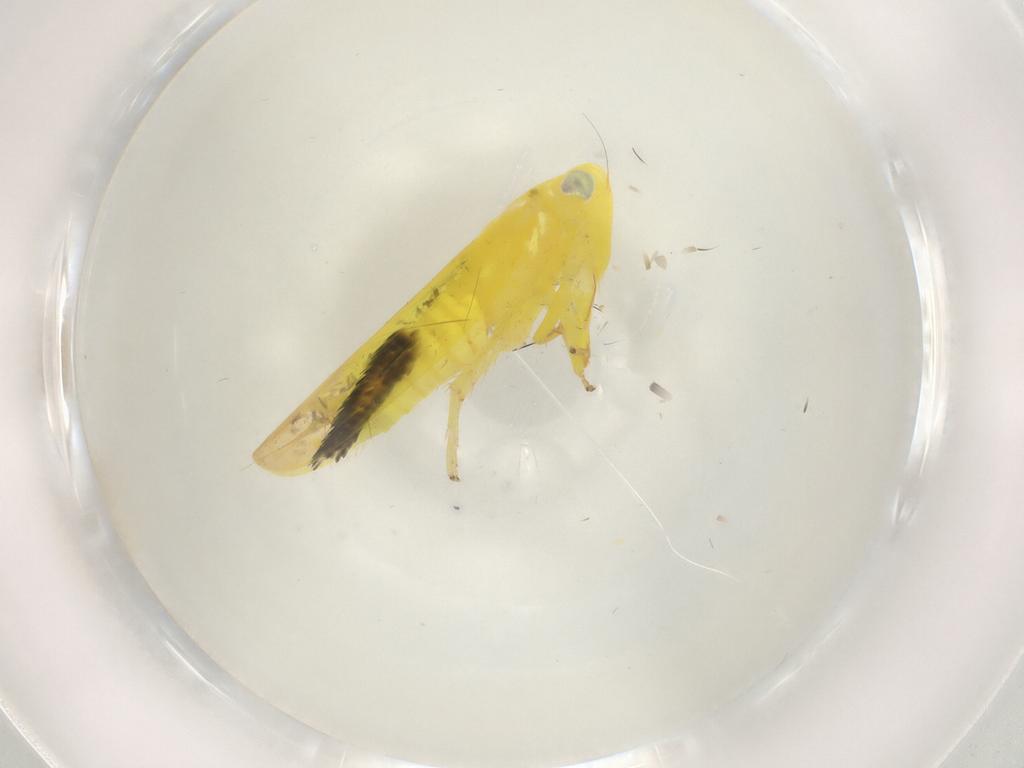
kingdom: Animalia
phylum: Arthropoda
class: Insecta
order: Hemiptera
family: Cicadellidae
